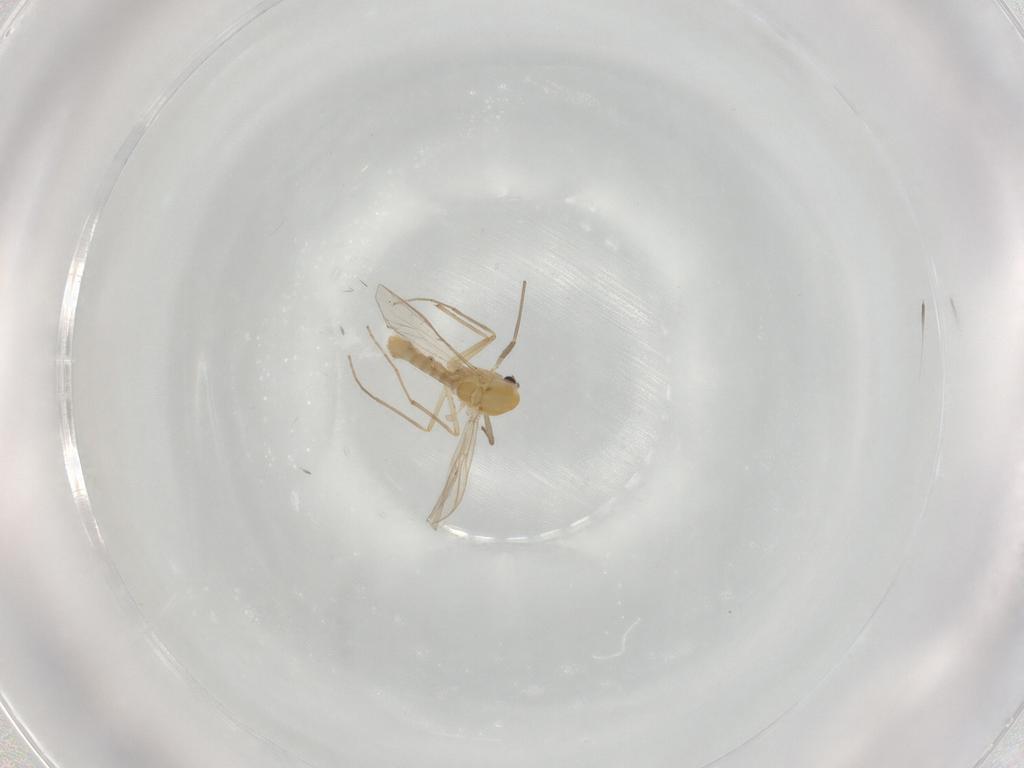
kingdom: Animalia
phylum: Arthropoda
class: Insecta
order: Diptera
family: Chironomidae
